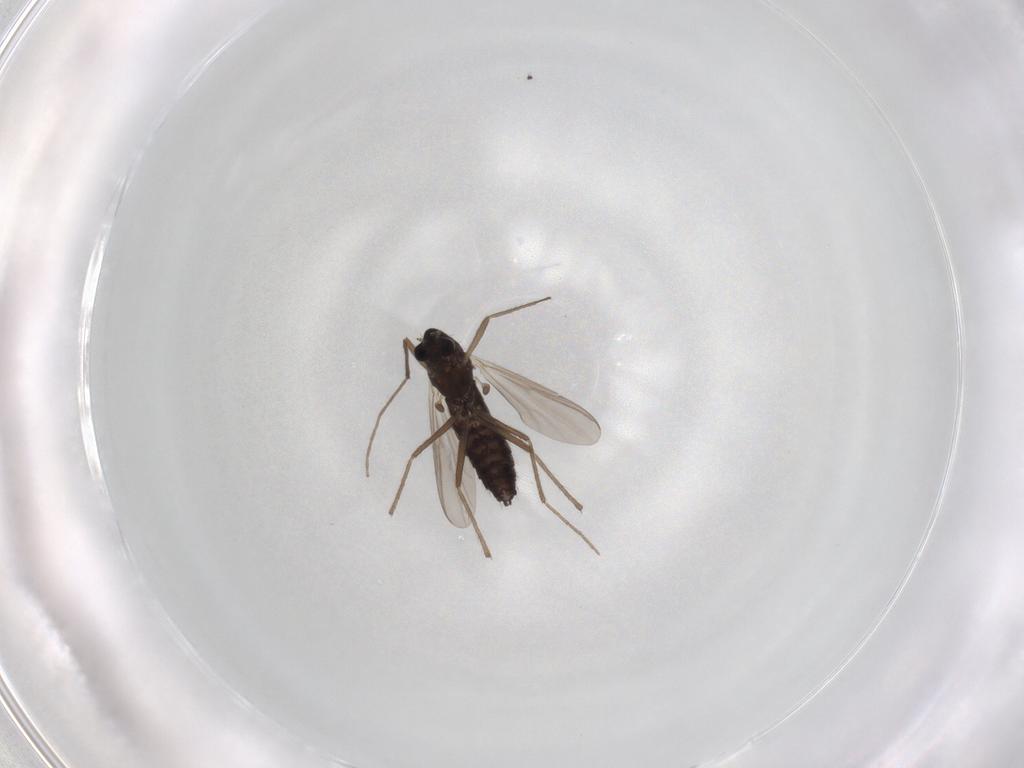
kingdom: Animalia
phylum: Arthropoda
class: Insecta
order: Diptera
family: Chironomidae
